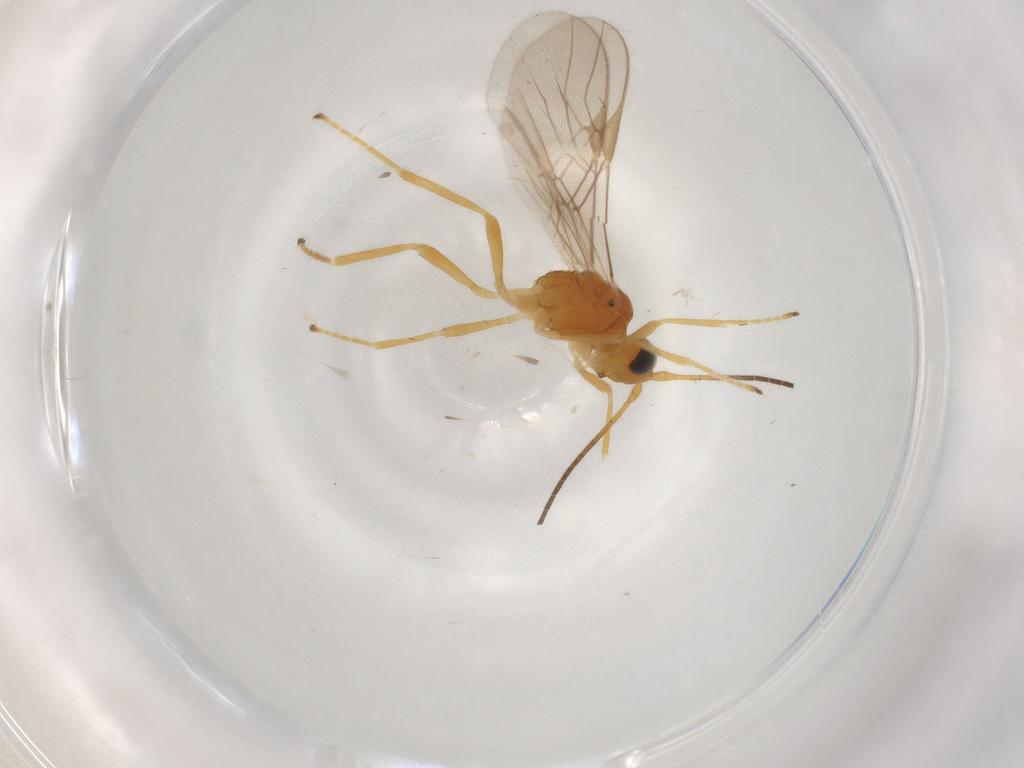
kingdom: Animalia
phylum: Arthropoda
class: Insecta
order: Hymenoptera
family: Braconidae
